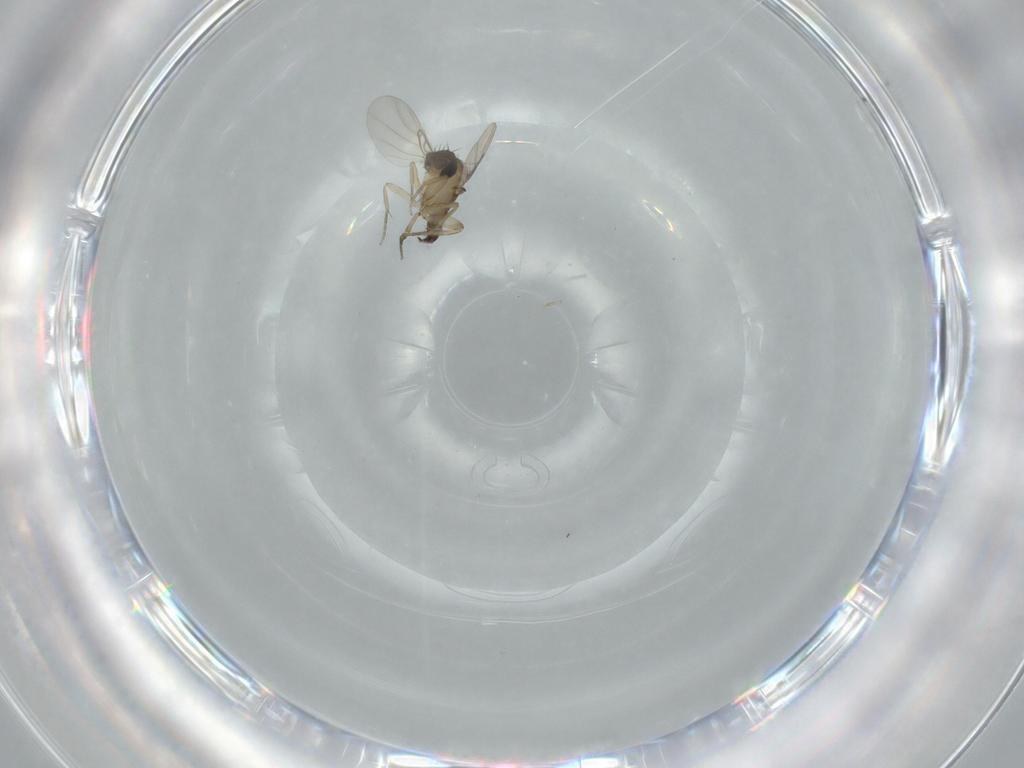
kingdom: Animalia
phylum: Arthropoda
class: Insecta
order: Diptera
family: Phoridae
